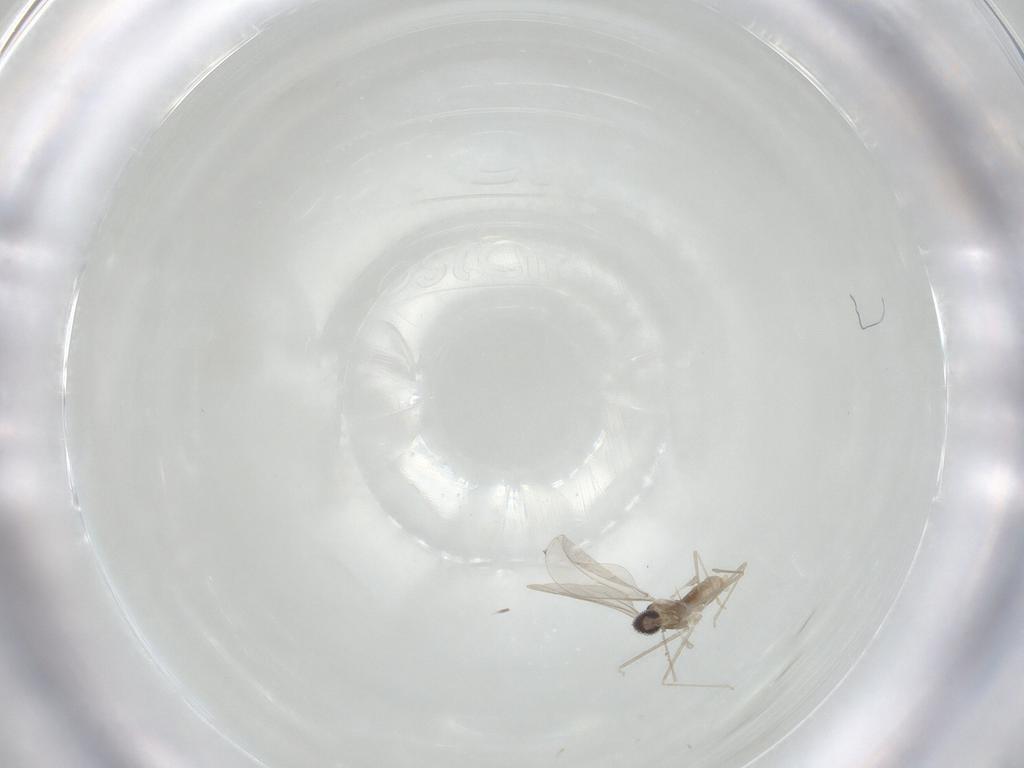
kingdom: Animalia
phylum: Arthropoda
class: Insecta
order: Diptera
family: Cecidomyiidae
